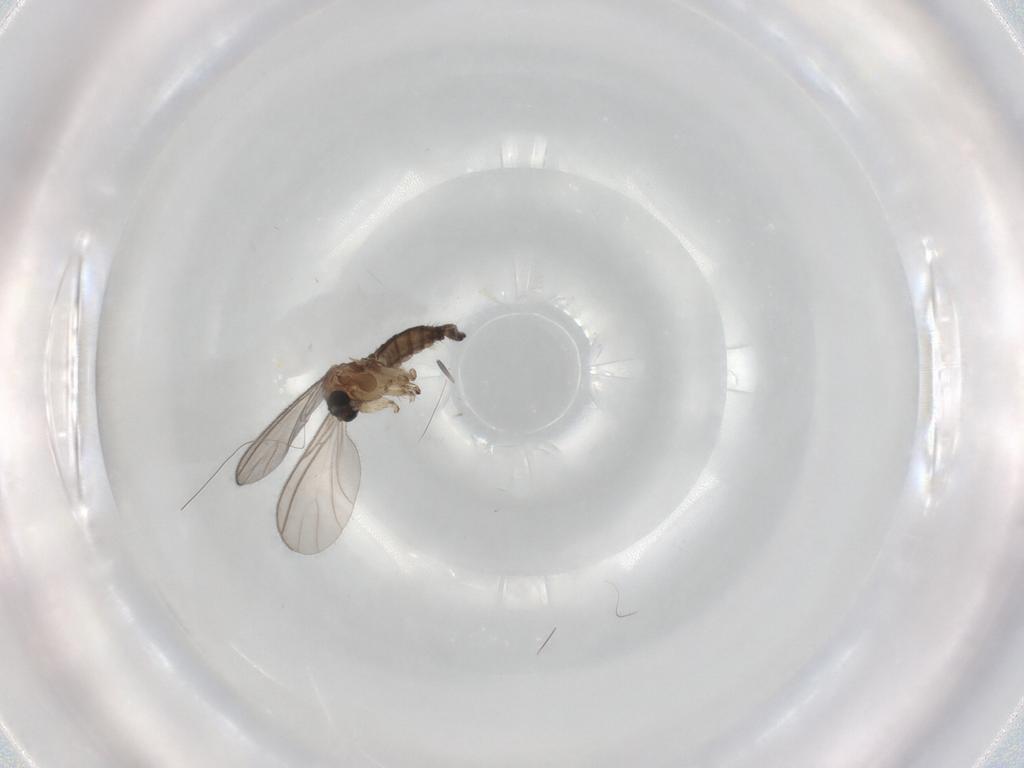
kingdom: Animalia
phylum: Arthropoda
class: Insecta
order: Diptera
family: Sciaridae
